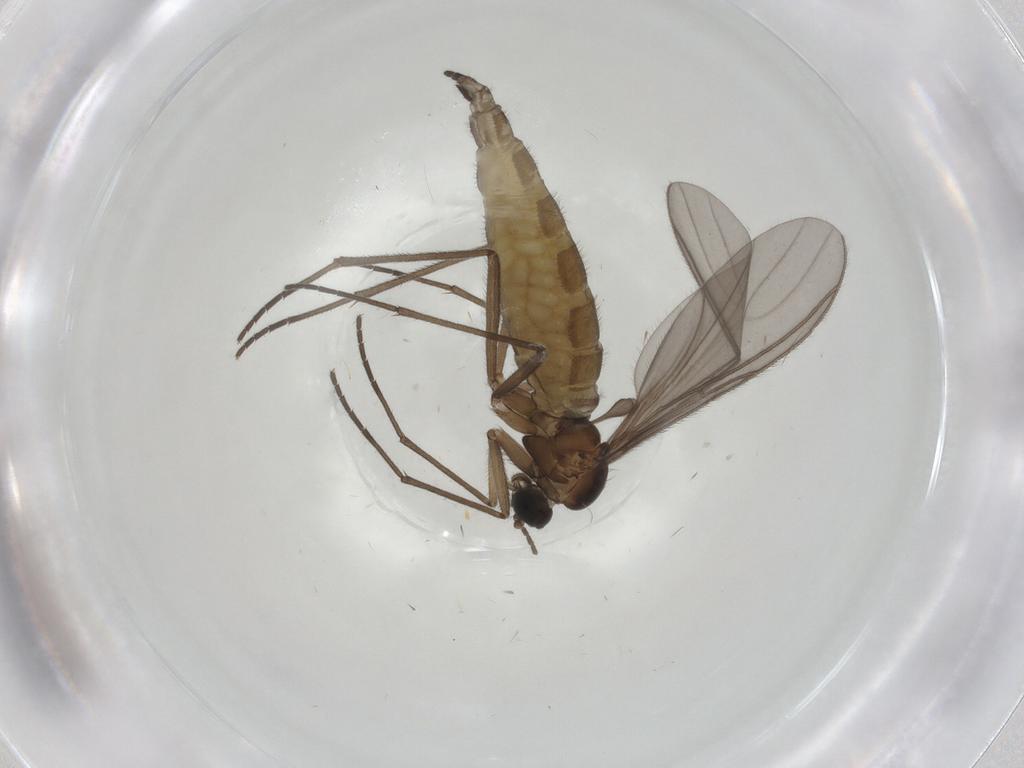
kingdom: Animalia
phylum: Arthropoda
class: Insecta
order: Diptera
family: Sciaridae
